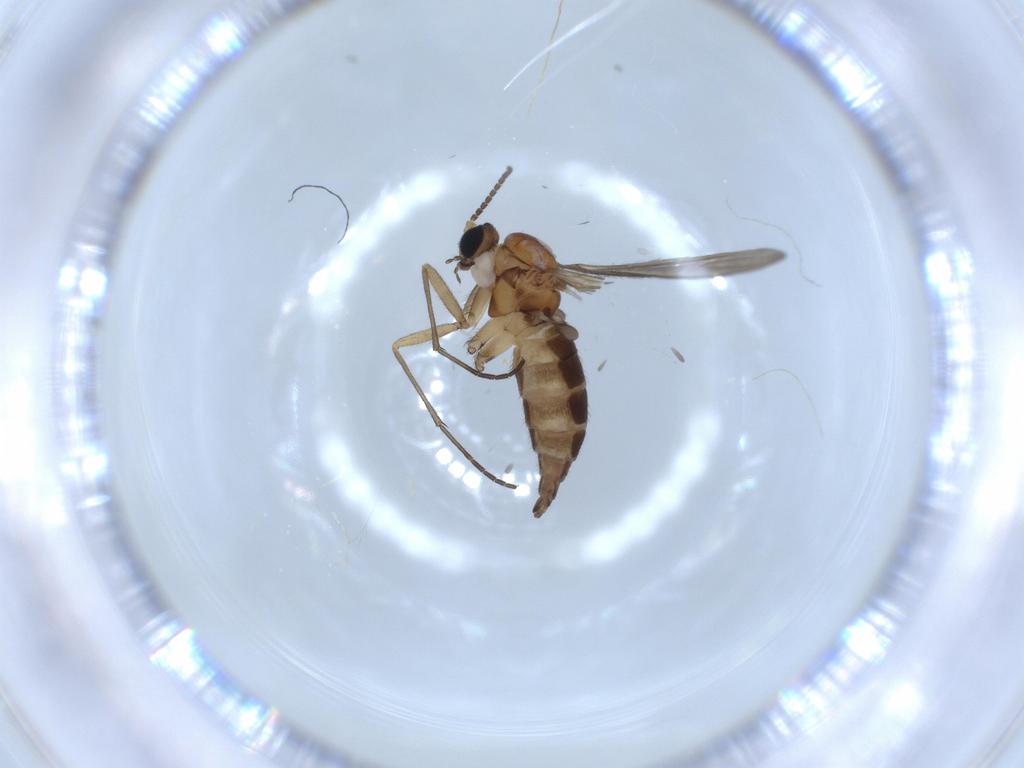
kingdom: Animalia
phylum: Arthropoda
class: Insecta
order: Diptera
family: Sciaridae
